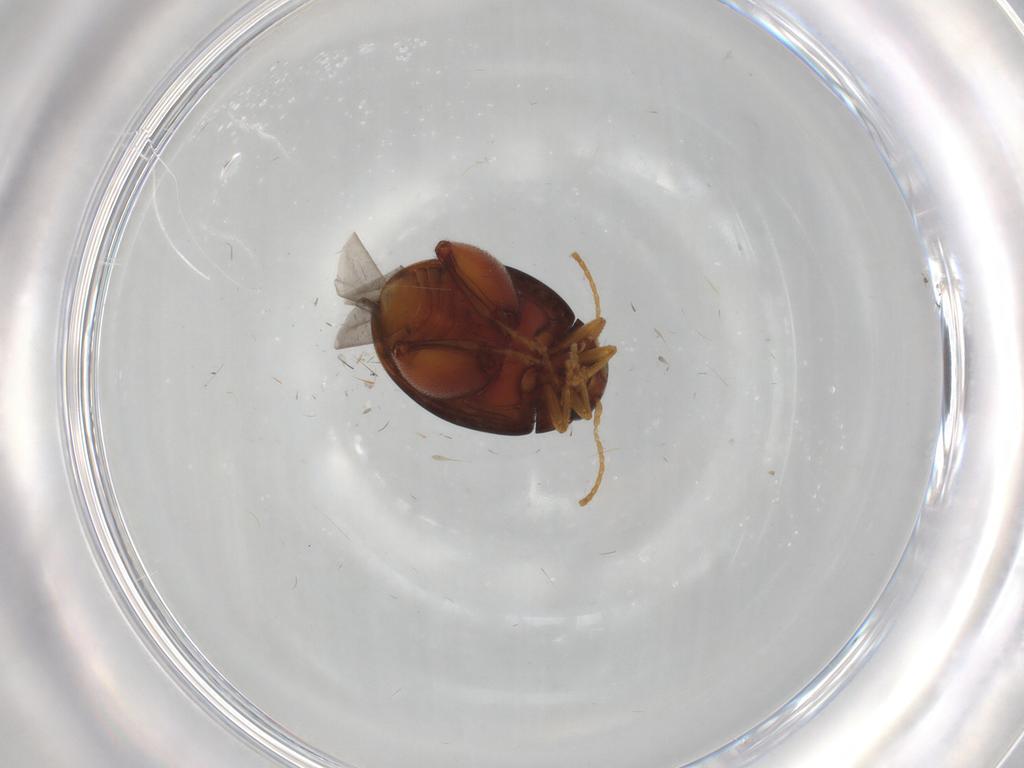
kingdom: Animalia
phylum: Arthropoda
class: Insecta
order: Coleoptera
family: Chrysomelidae
